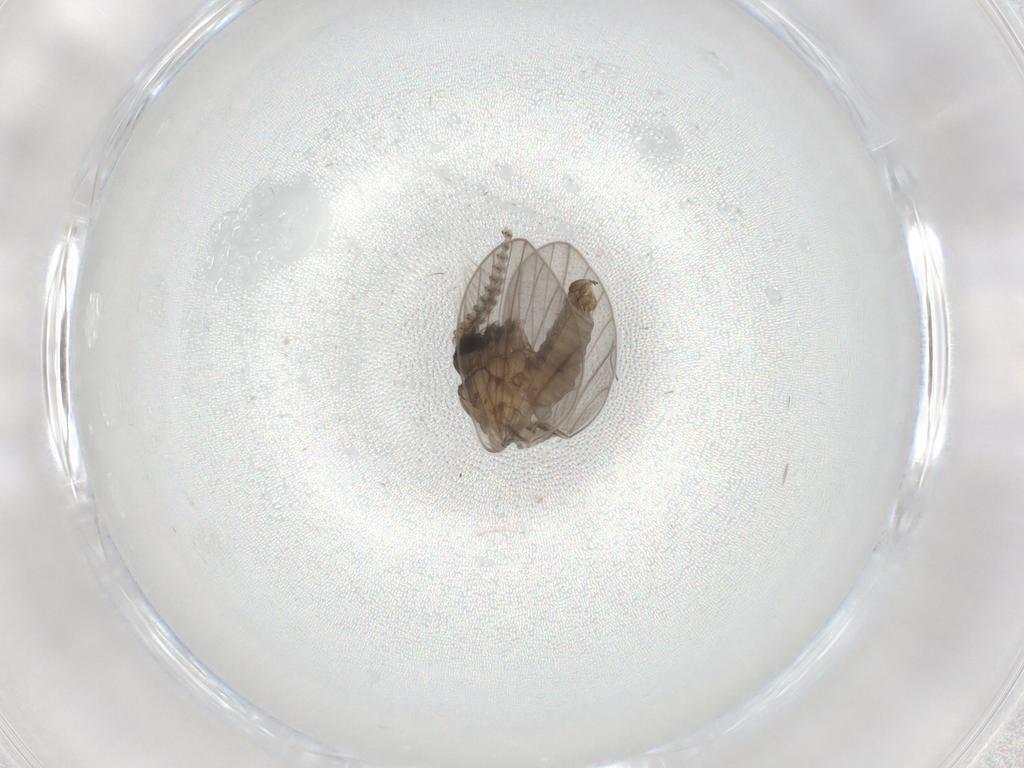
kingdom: Animalia
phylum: Arthropoda
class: Insecta
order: Diptera
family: Psychodidae
